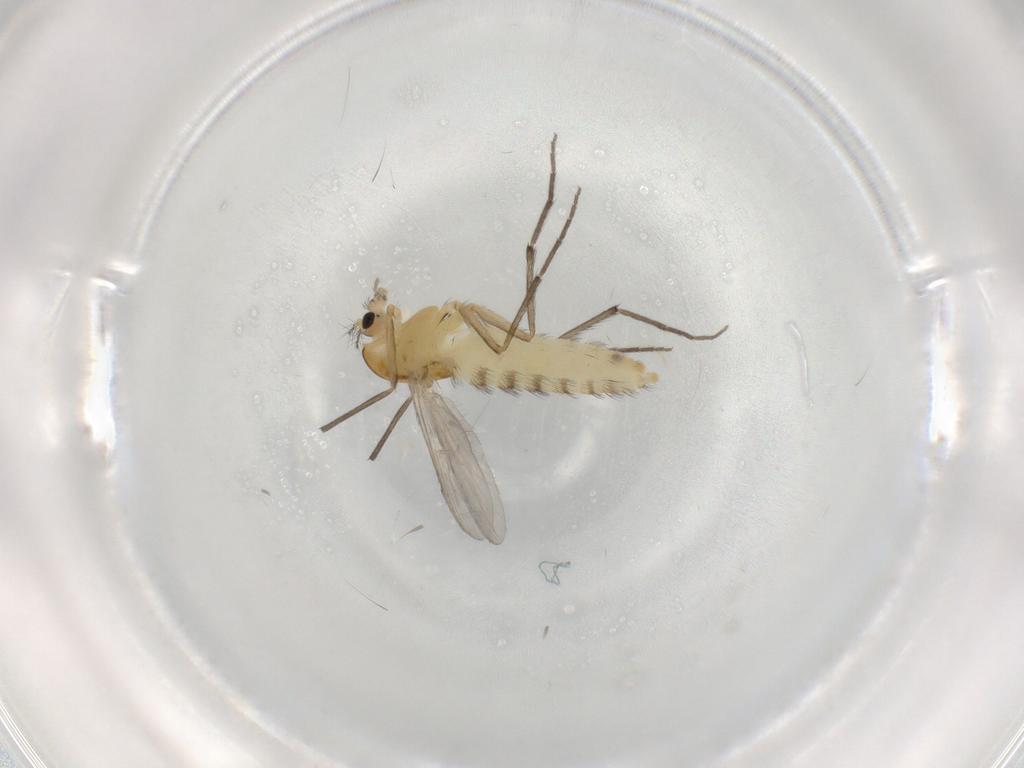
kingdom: Animalia
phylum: Arthropoda
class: Insecta
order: Diptera
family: Chironomidae
